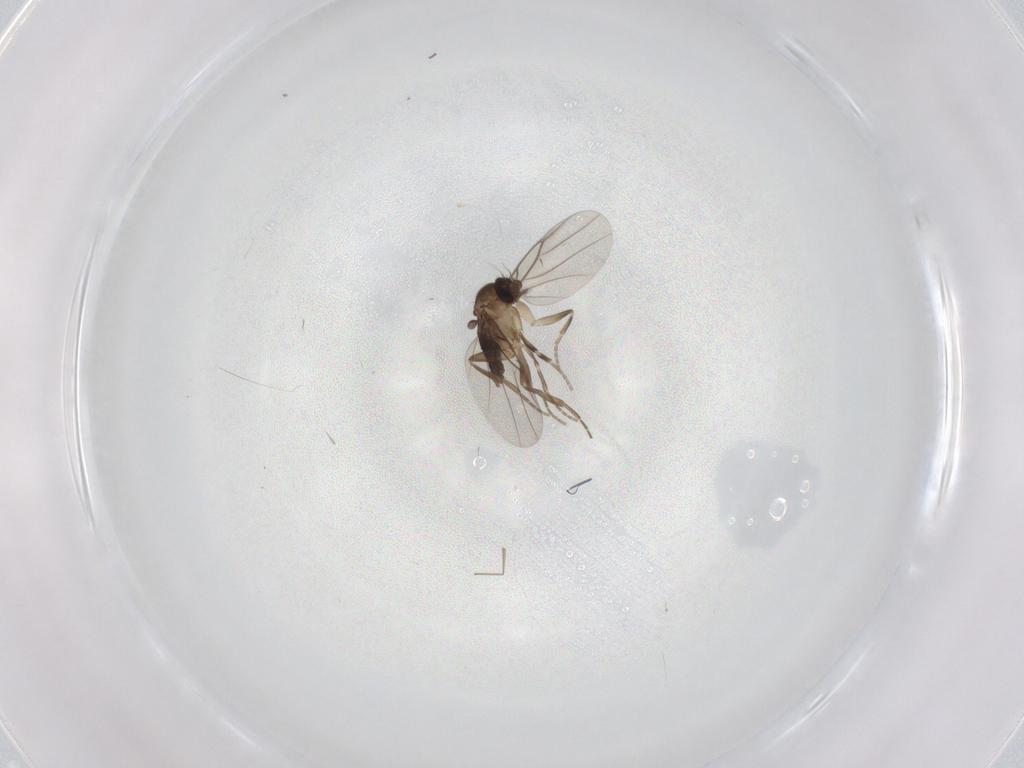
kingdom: Animalia
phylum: Arthropoda
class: Insecta
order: Diptera
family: Phoridae
